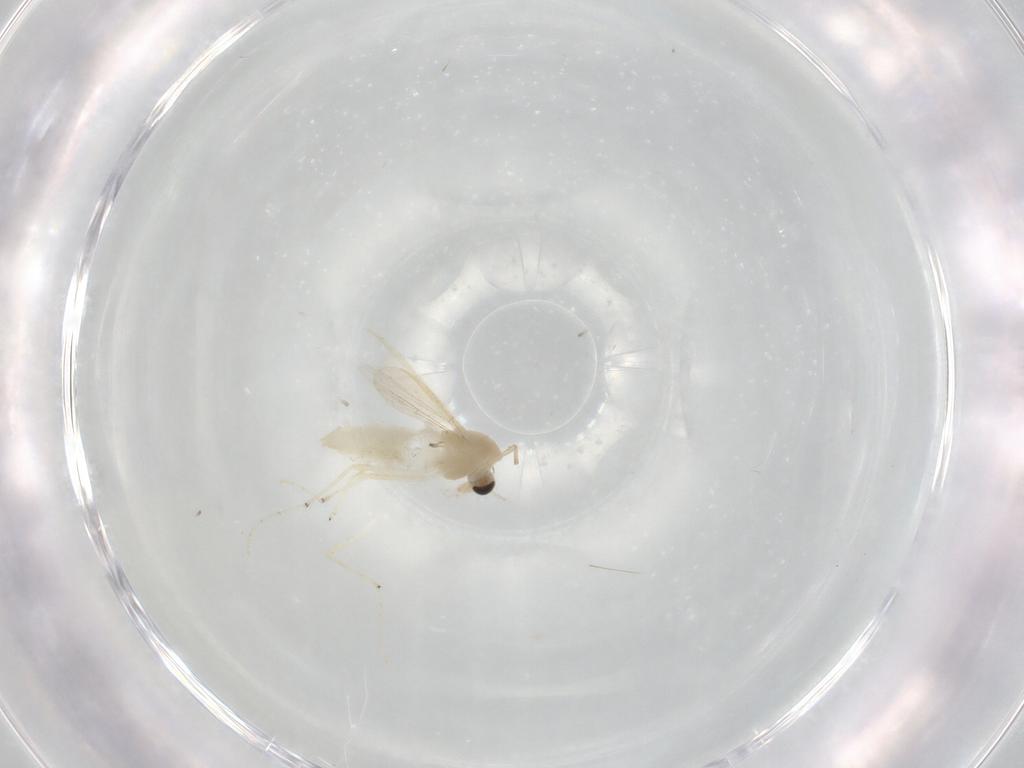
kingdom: Animalia
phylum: Arthropoda
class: Insecta
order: Diptera
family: Chironomidae
